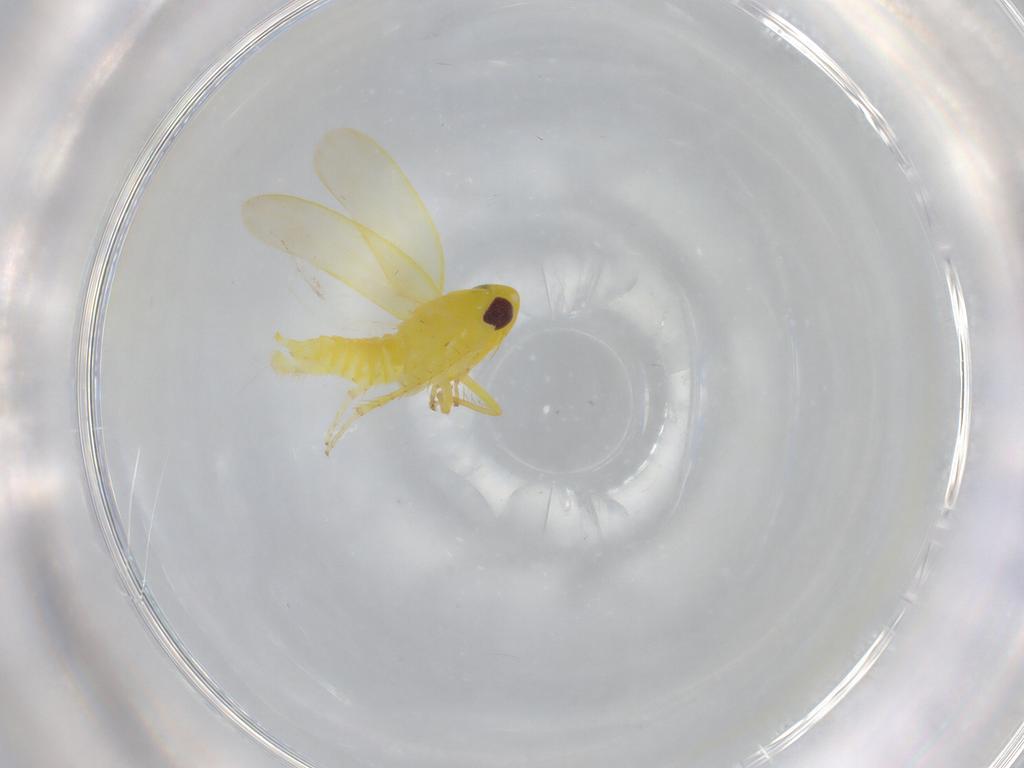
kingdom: Animalia
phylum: Arthropoda
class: Insecta
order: Hemiptera
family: Cicadellidae
